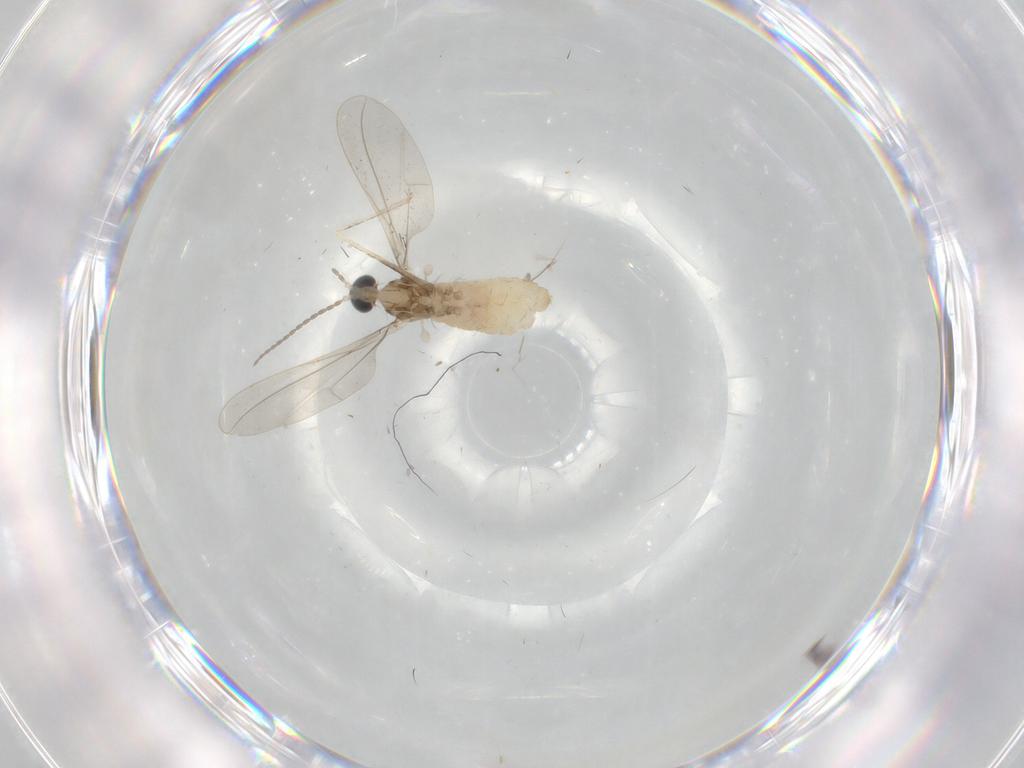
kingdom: Animalia
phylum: Arthropoda
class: Insecta
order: Diptera
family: Cecidomyiidae
